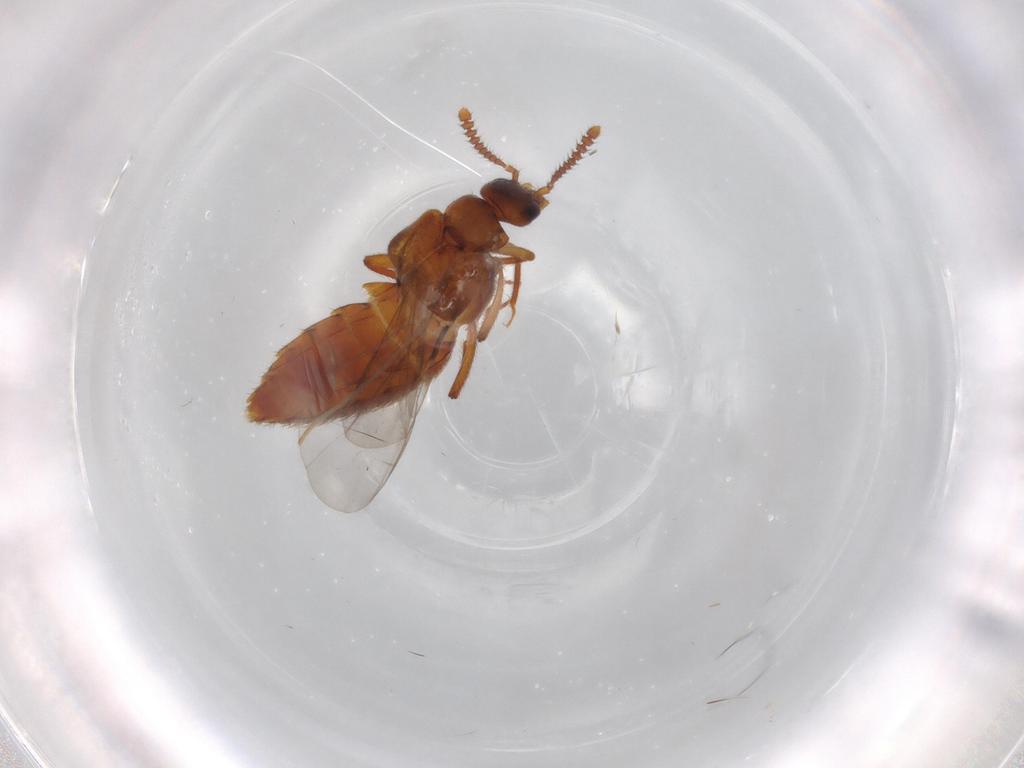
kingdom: Animalia
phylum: Arthropoda
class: Insecta
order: Coleoptera
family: Staphylinidae
